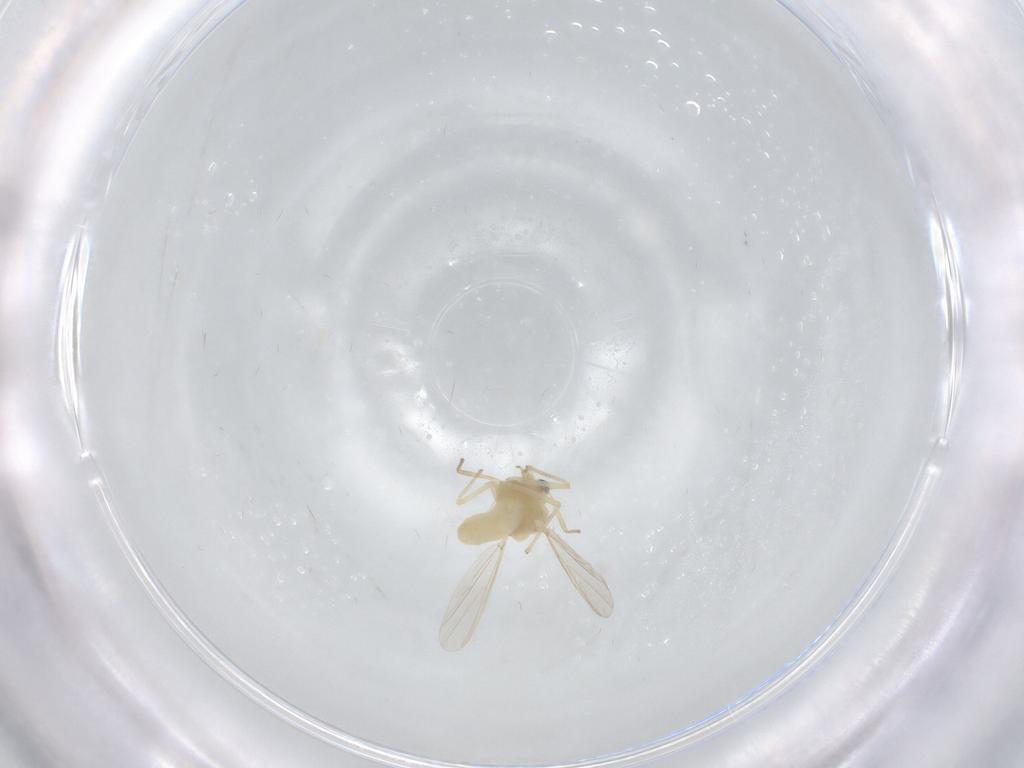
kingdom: Animalia
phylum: Arthropoda
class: Insecta
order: Diptera
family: Chironomidae
